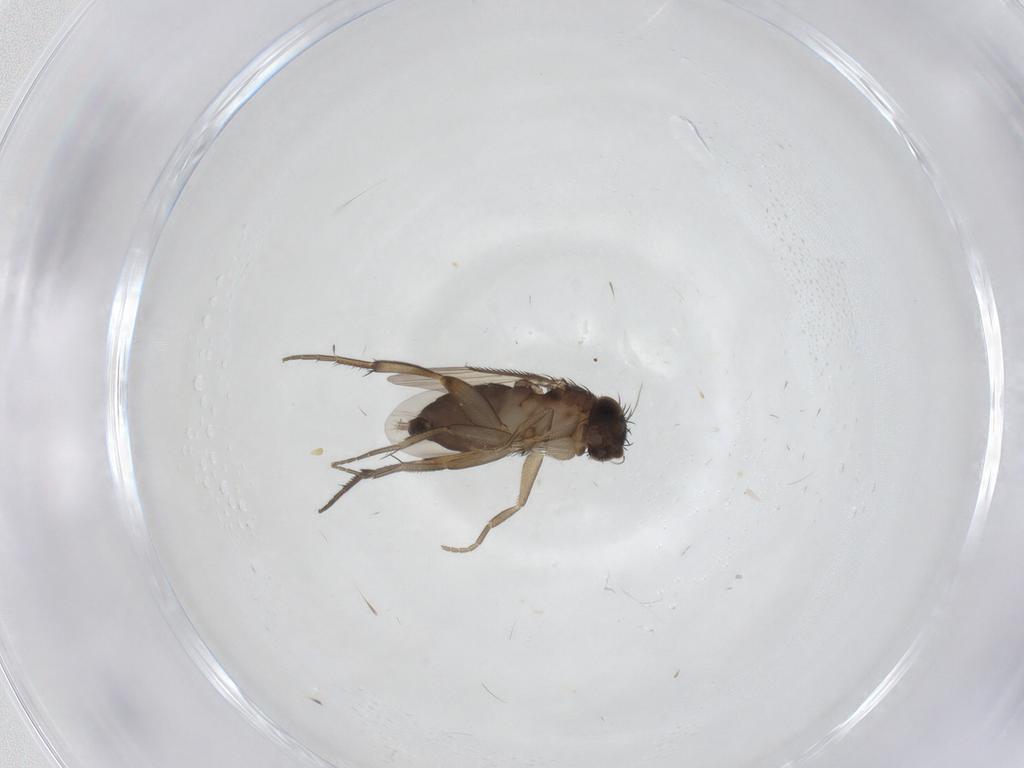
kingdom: Animalia
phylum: Arthropoda
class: Insecta
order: Diptera
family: Phoridae
